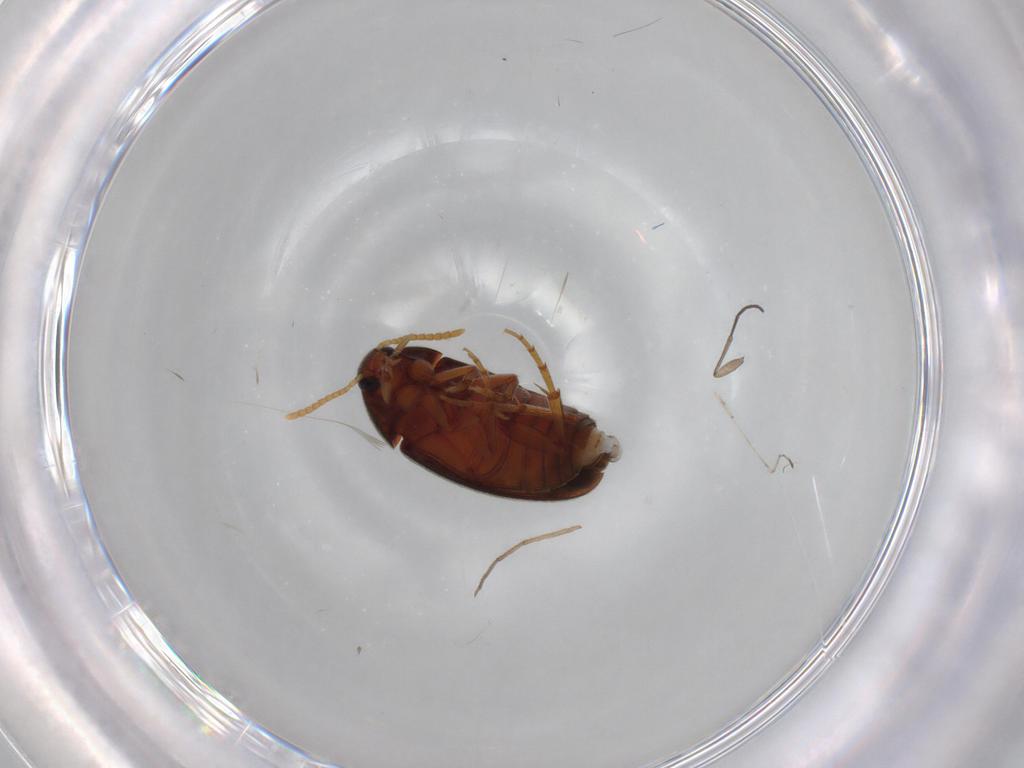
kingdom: Animalia
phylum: Arthropoda
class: Insecta
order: Coleoptera
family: Scraptiidae
